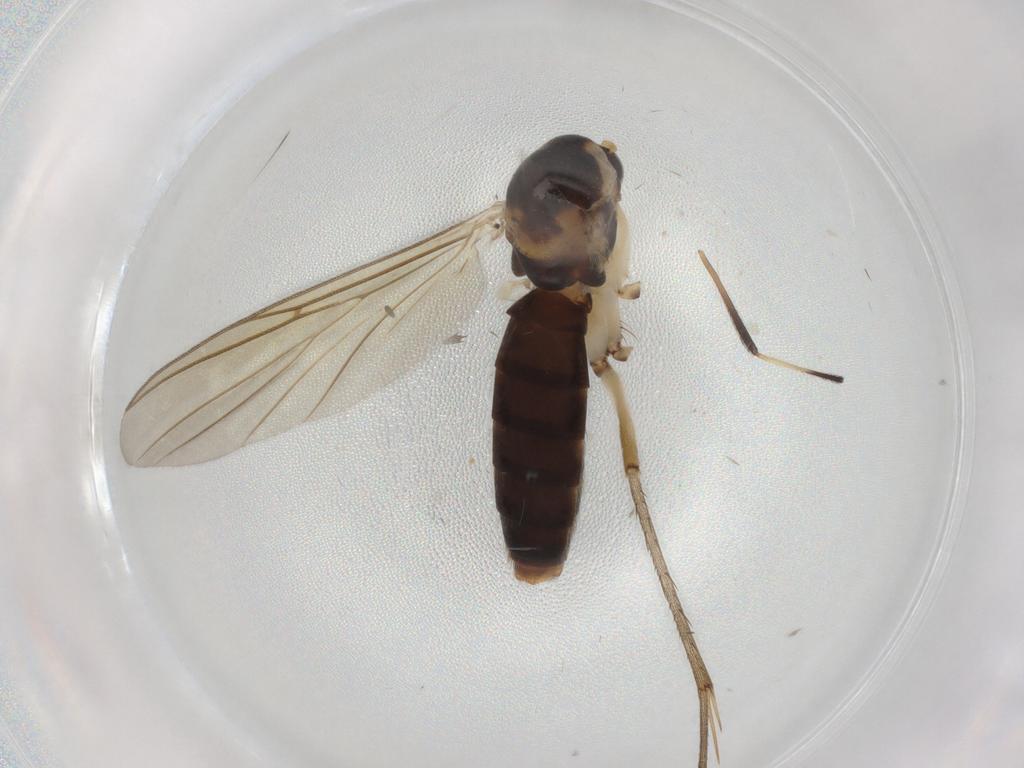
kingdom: Animalia
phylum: Arthropoda
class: Insecta
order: Diptera
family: Mycetophilidae
